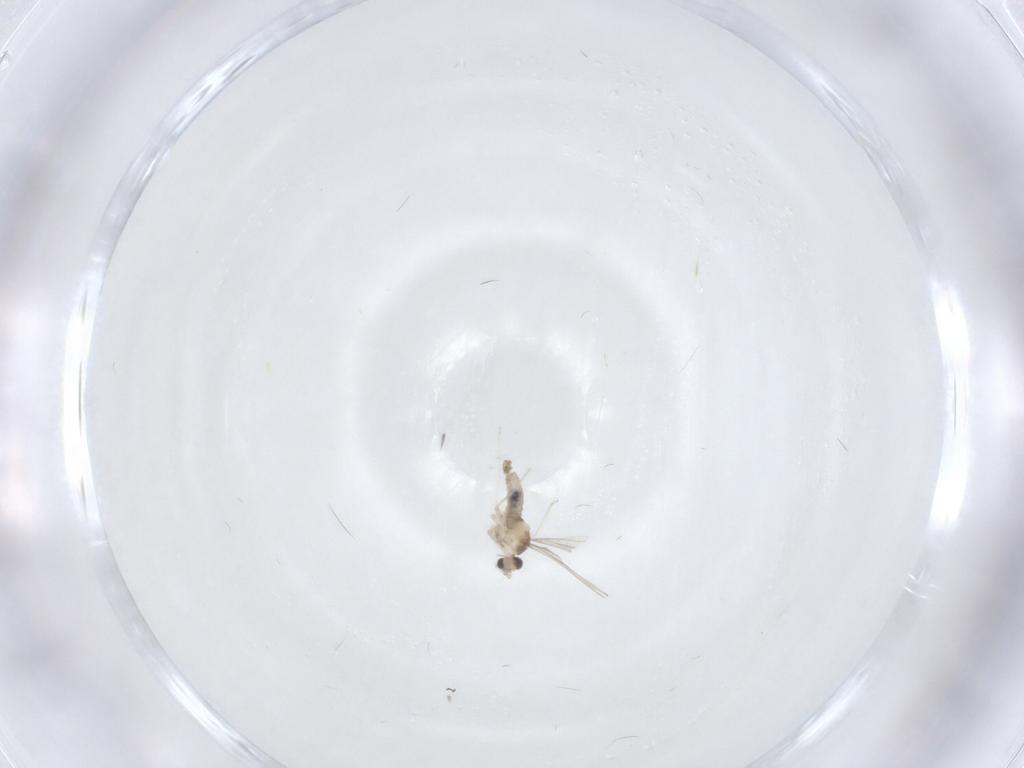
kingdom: Animalia
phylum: Arthropoda
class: Insecta
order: Diptera
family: Cecidomyiidae
